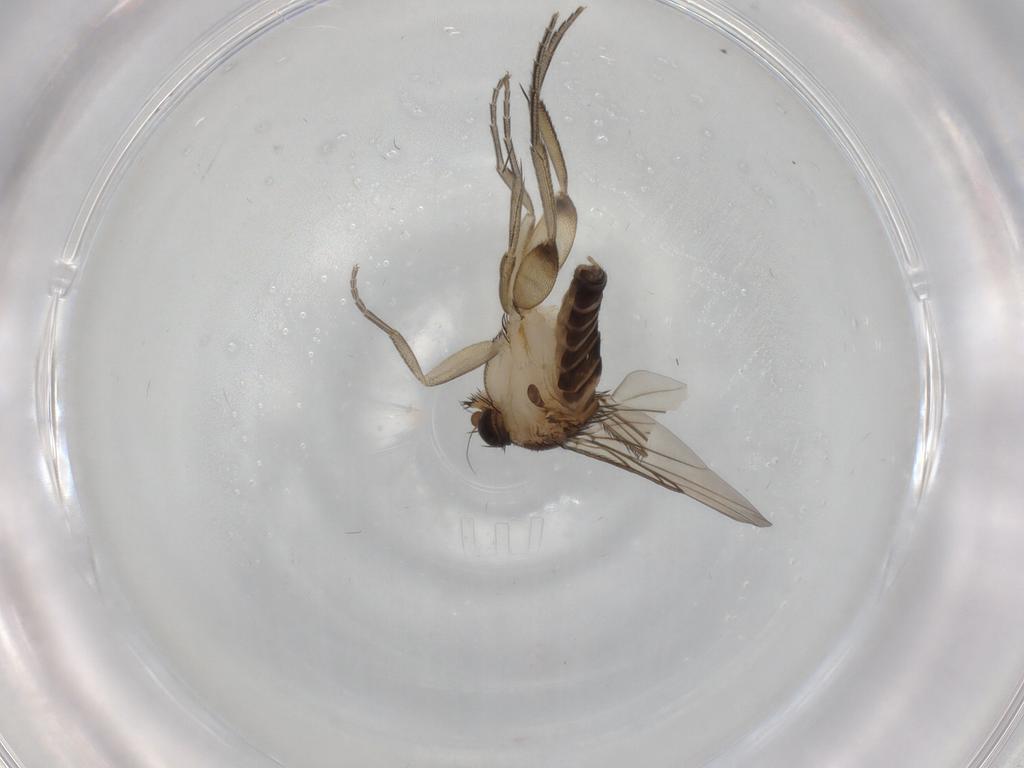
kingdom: Animalia
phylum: Arthropoda
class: Insecta
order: Diptera
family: Phoridae
